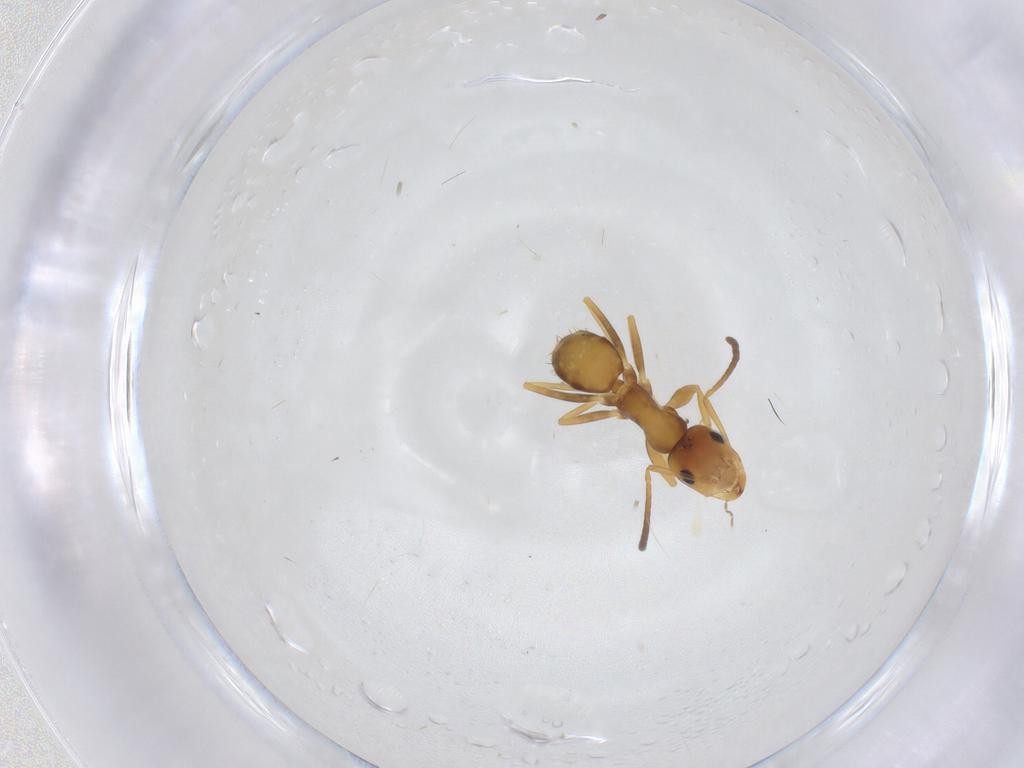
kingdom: Animalia
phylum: Arthropoda
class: Insecta
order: Hymenoptera
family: Formicidae
